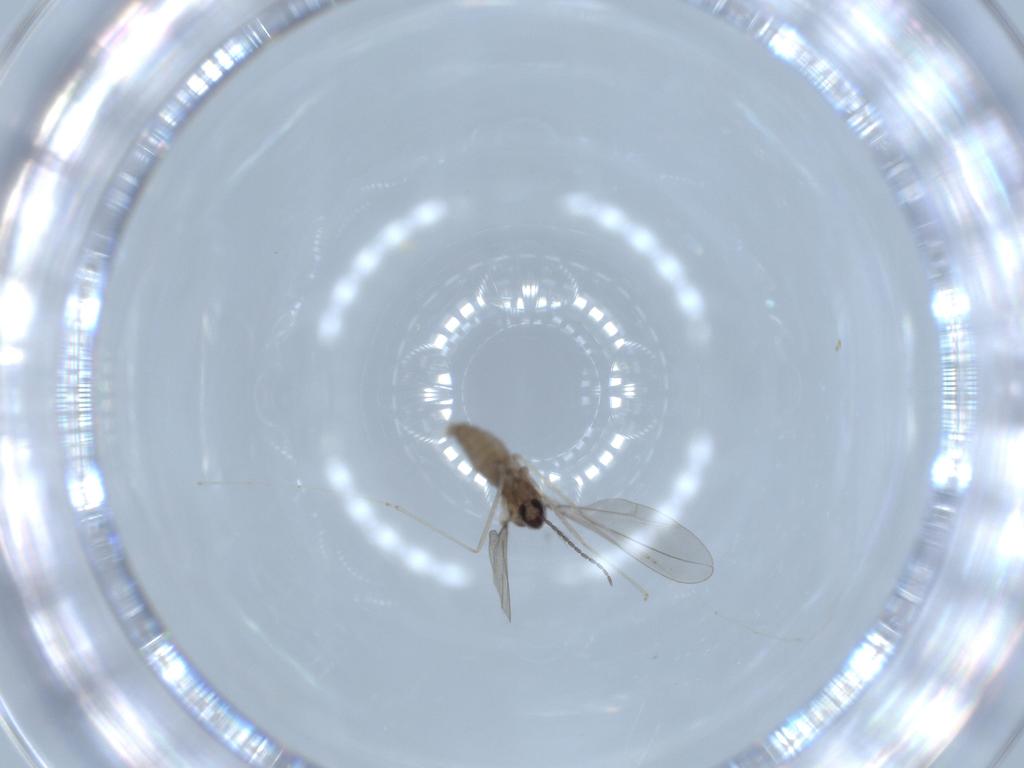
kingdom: Animalia
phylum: Arthropoda
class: Insecta
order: Diptera
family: Cecidomyiidae
